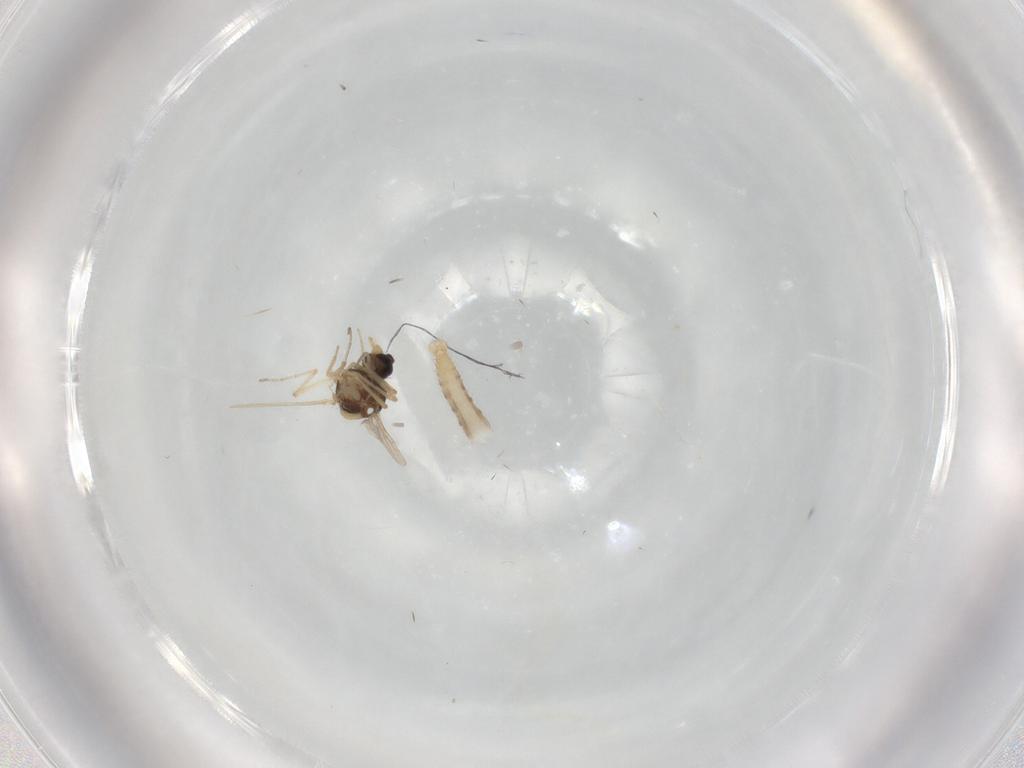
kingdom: Animalia
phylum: Arthropoda
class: Insecta
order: Diptera
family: Ceratopogonidae
